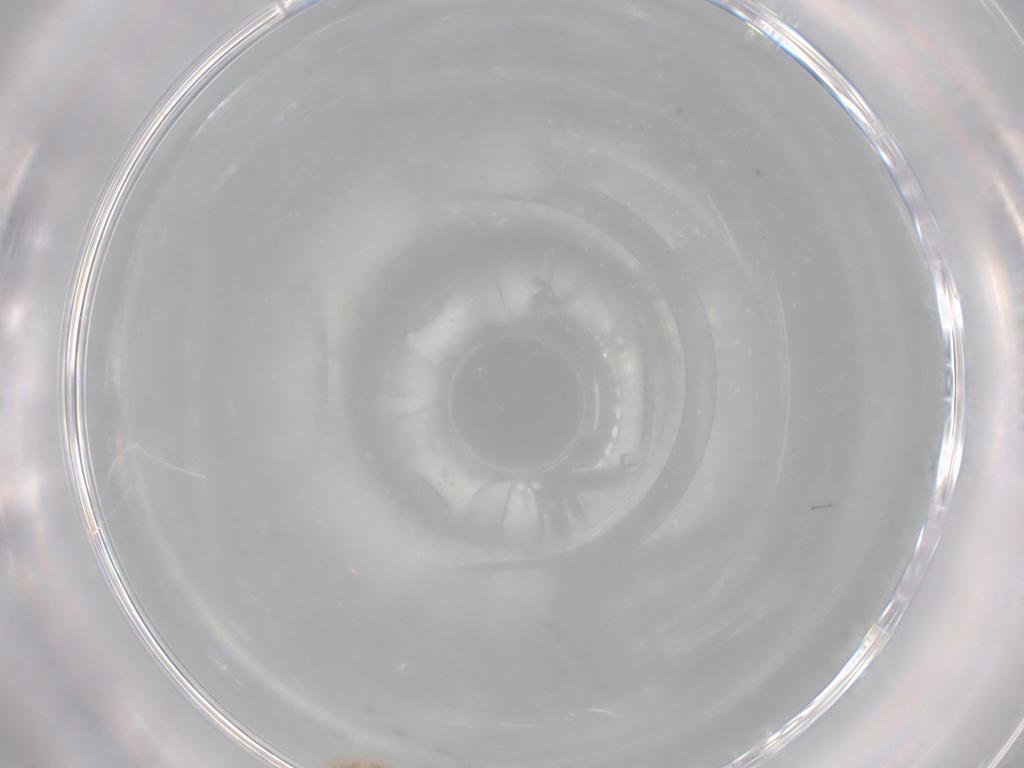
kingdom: Animalia
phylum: Arthropoda
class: Insecta
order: Hemiptera
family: Aleyrodidae
